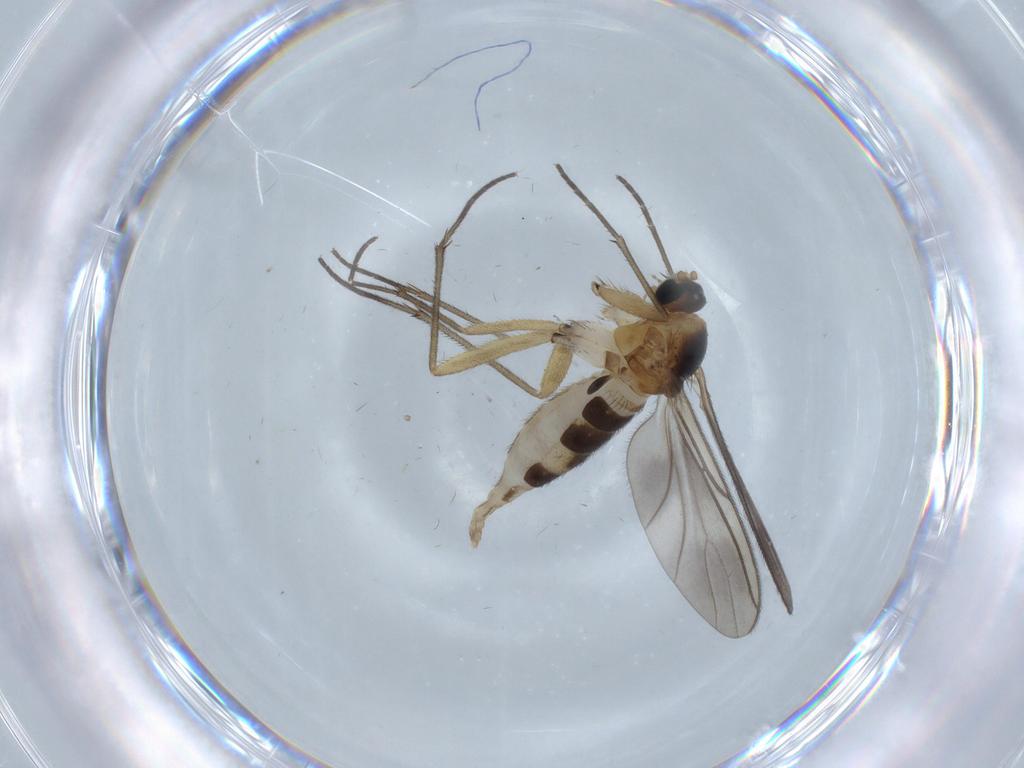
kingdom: Animalia
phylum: Arthropoda
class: Insecta
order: Diptera
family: Sciaridae
